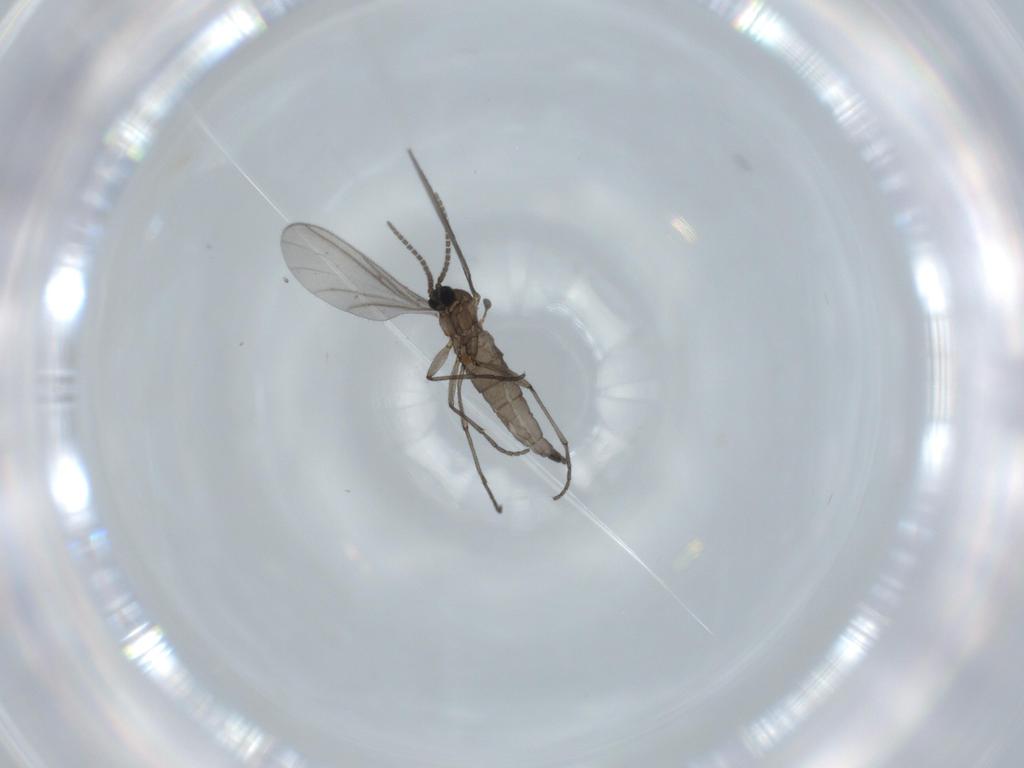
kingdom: Animalia
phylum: Arthropoda
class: Insecta
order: Diptera
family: Sciaridae
